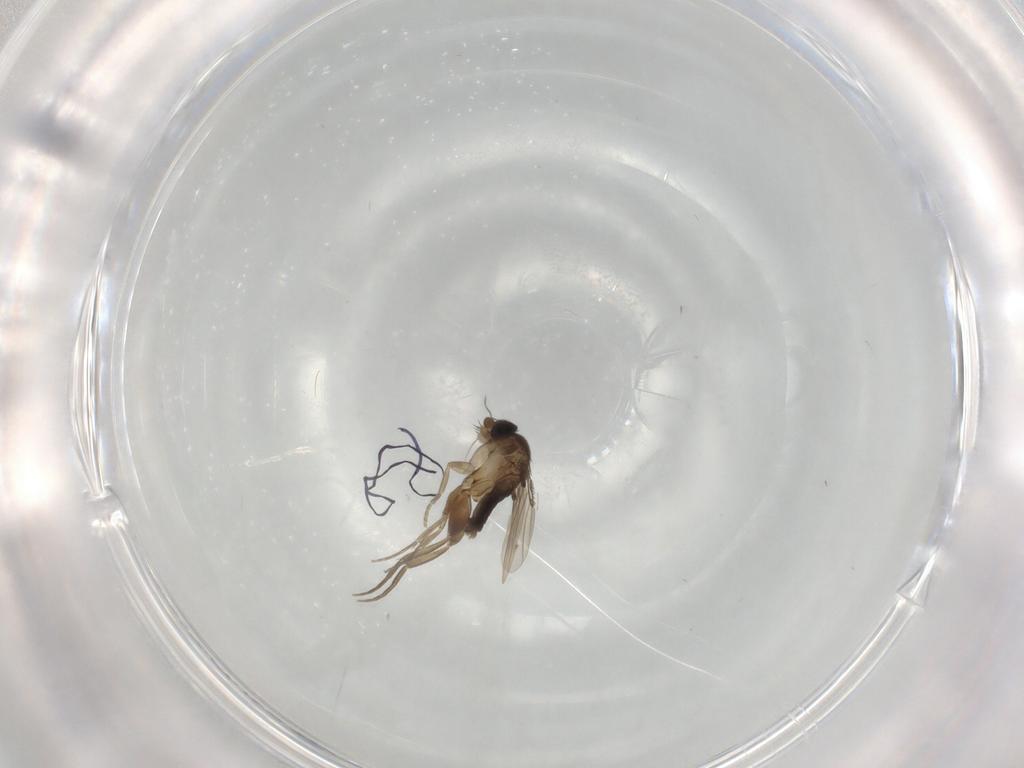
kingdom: Animalia
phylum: Arthropoda
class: Insecta
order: Diptera
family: Phoridae
